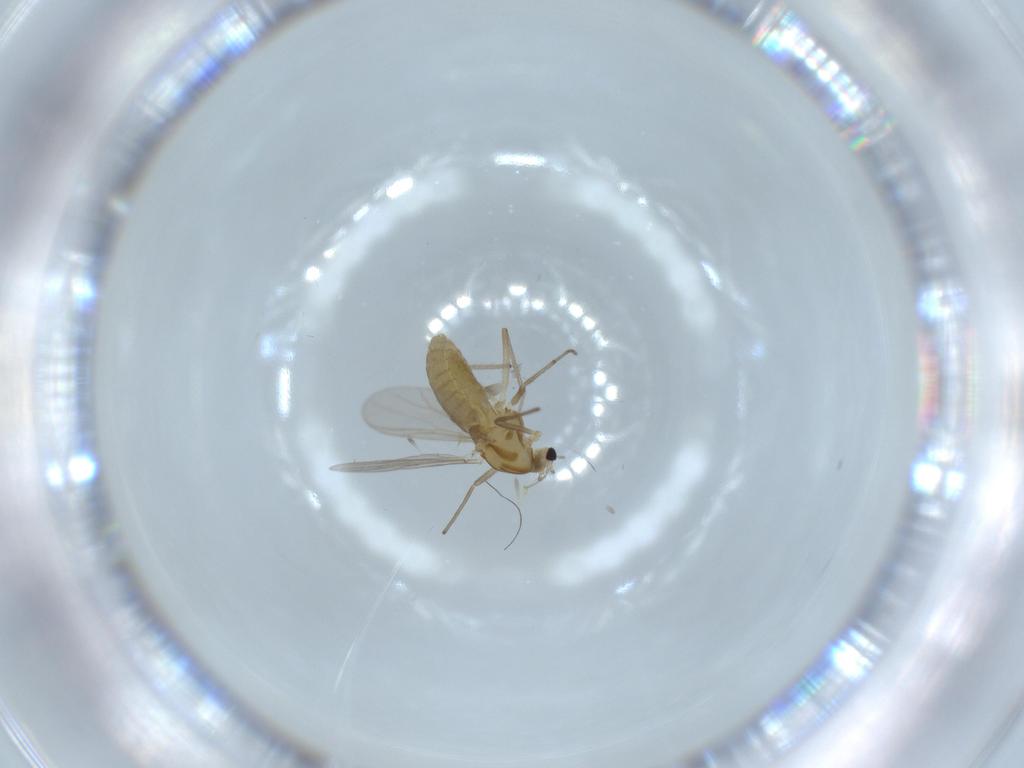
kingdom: Animalia
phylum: Arthropoda
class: Insecta
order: Diptera
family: Chironomidae
